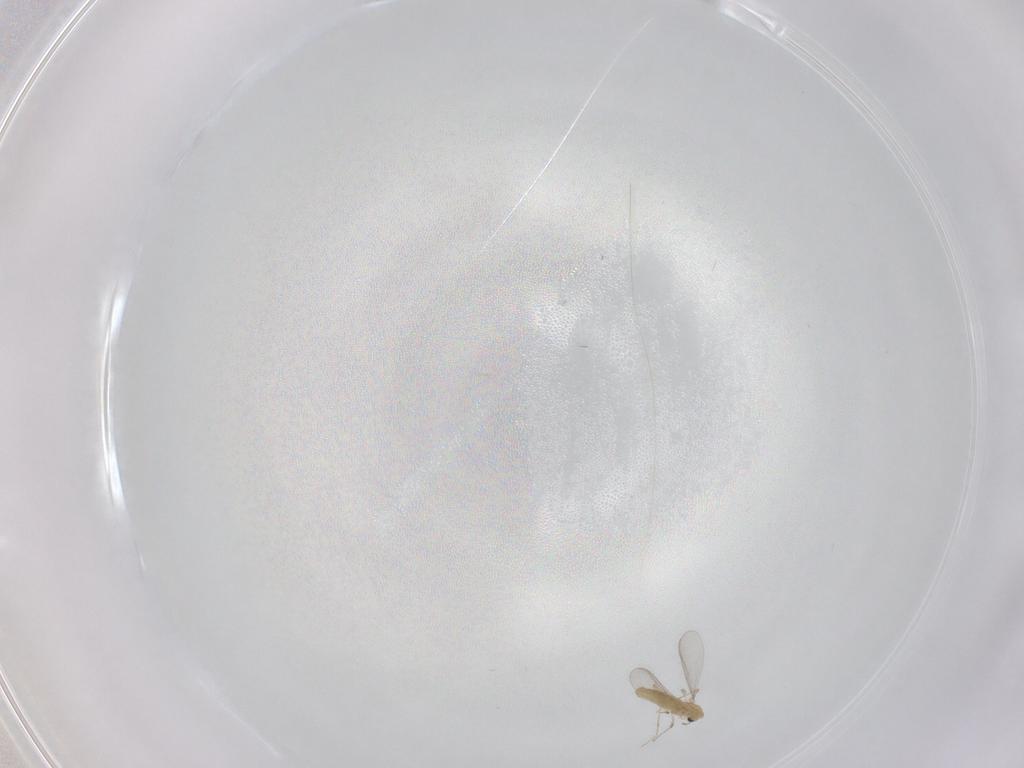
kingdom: Animalia
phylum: Arthropoda
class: Insecta
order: Diptera
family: Chironomidae
